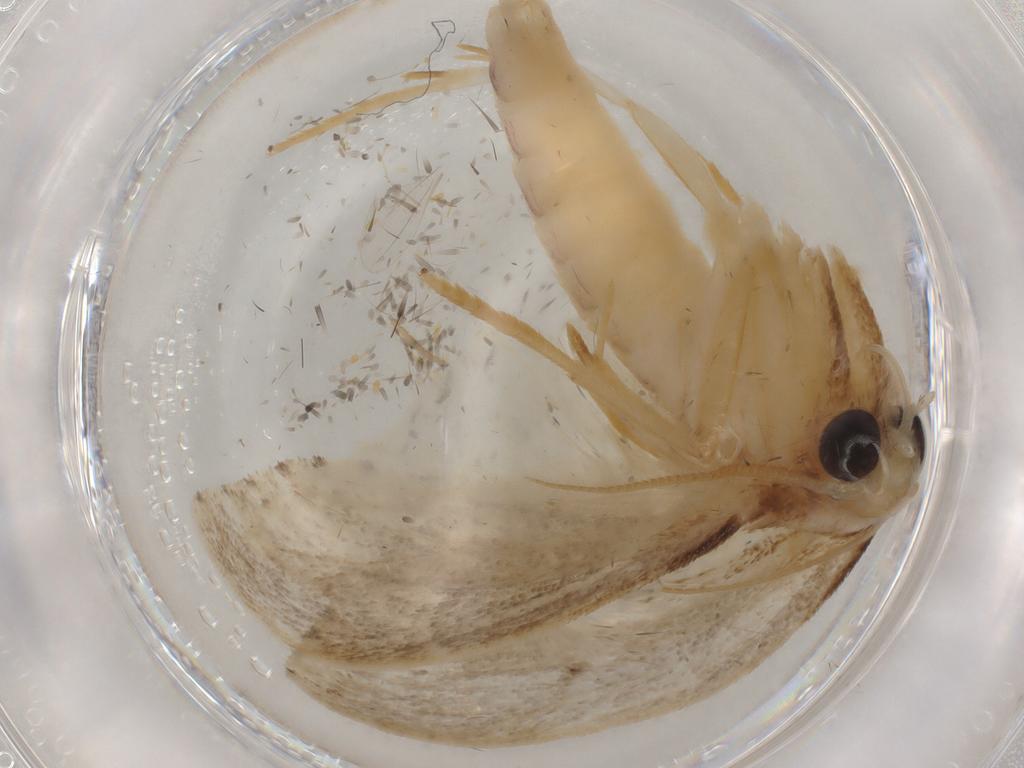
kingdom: Animalia
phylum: Arthropoda
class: Insecta
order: Lepidoptera
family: Crambidae
